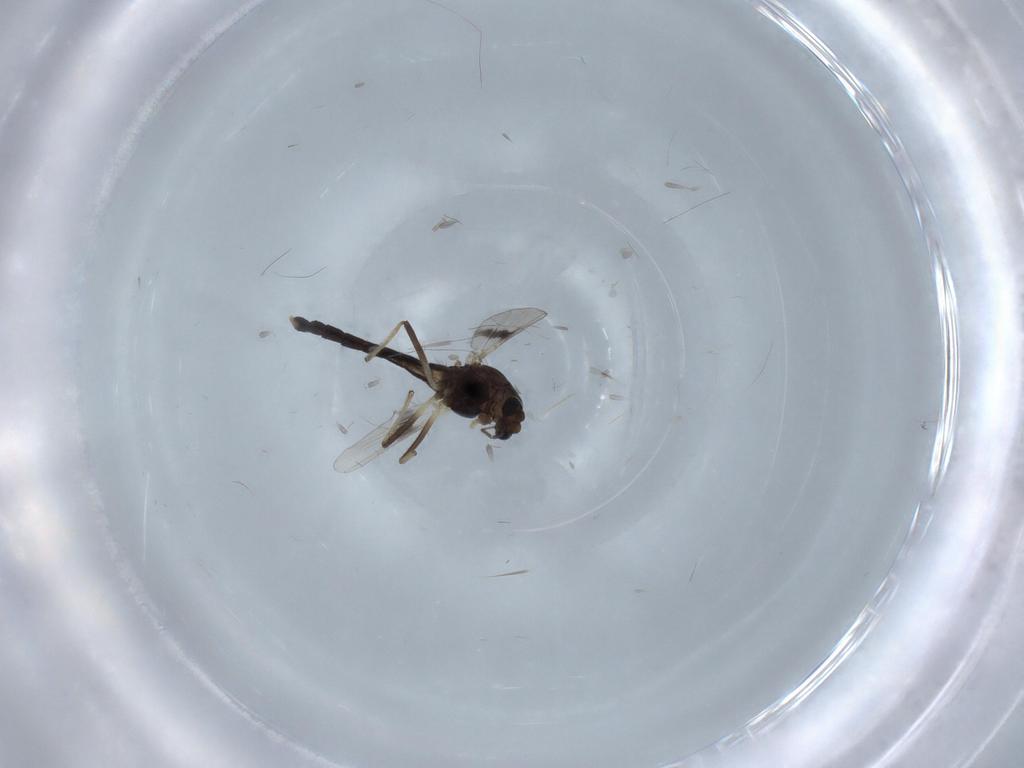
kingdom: Animalia
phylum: Arthropoda
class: Insecta
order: Diptera
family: Chironomidae
